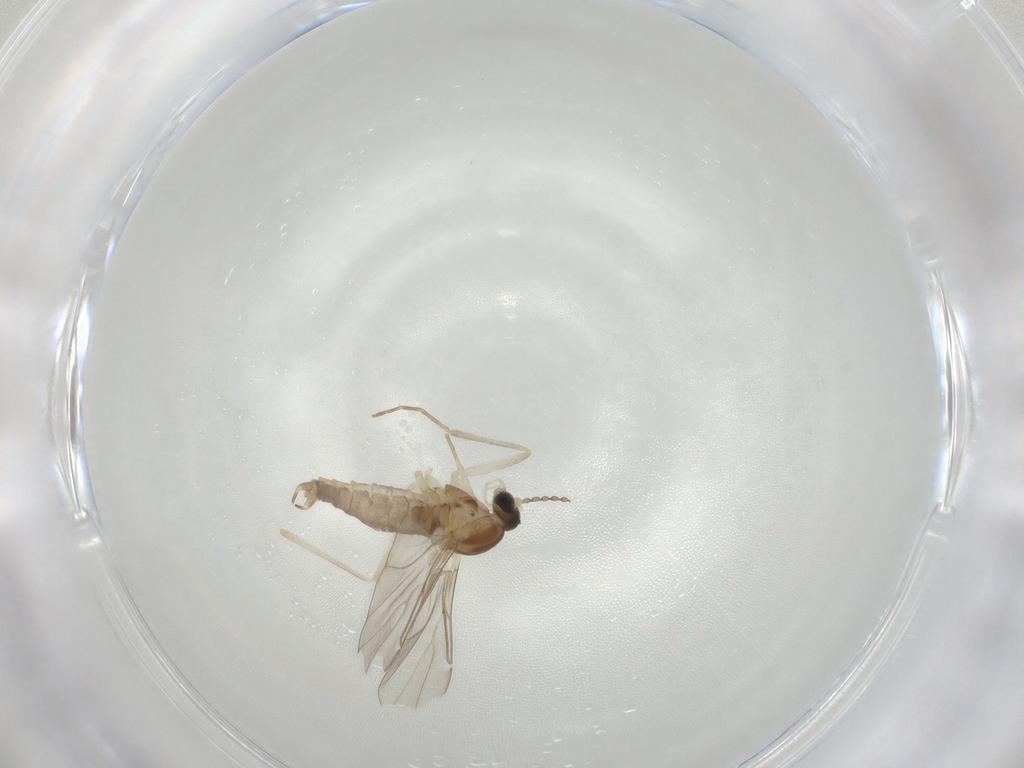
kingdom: Animalia
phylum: Arthropoda
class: Insecta
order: Diptera
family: Cecidomyiidae
